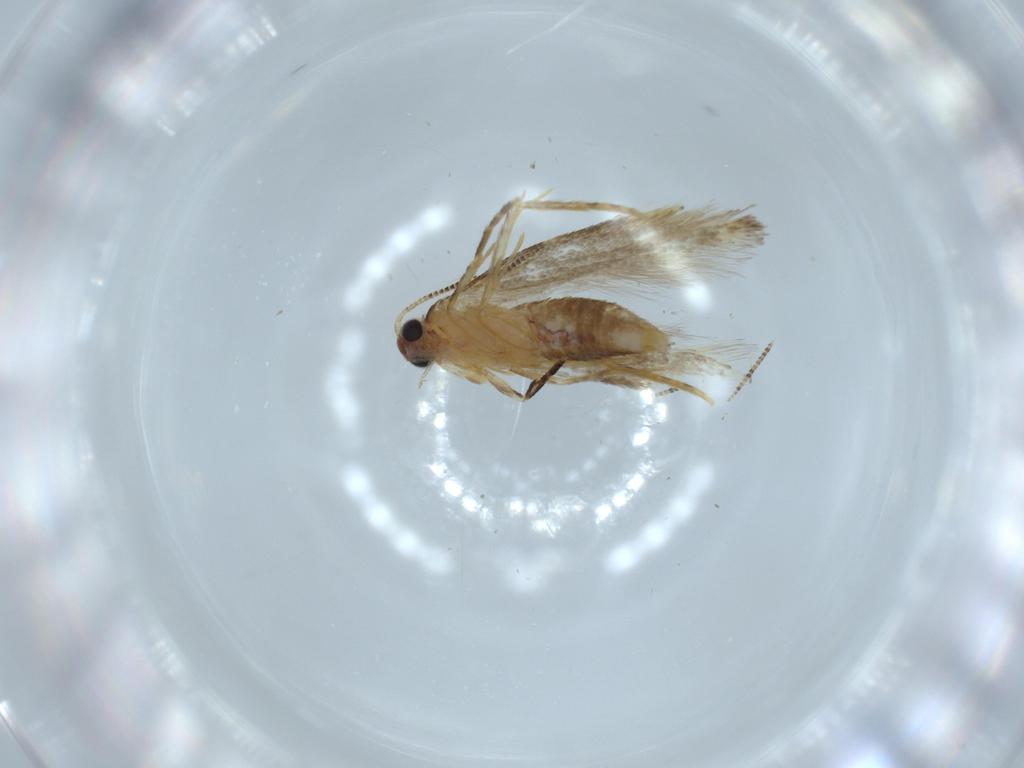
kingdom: Animalia
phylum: Arthropoda
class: Insecta
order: Lepidoptera
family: Tineidae
